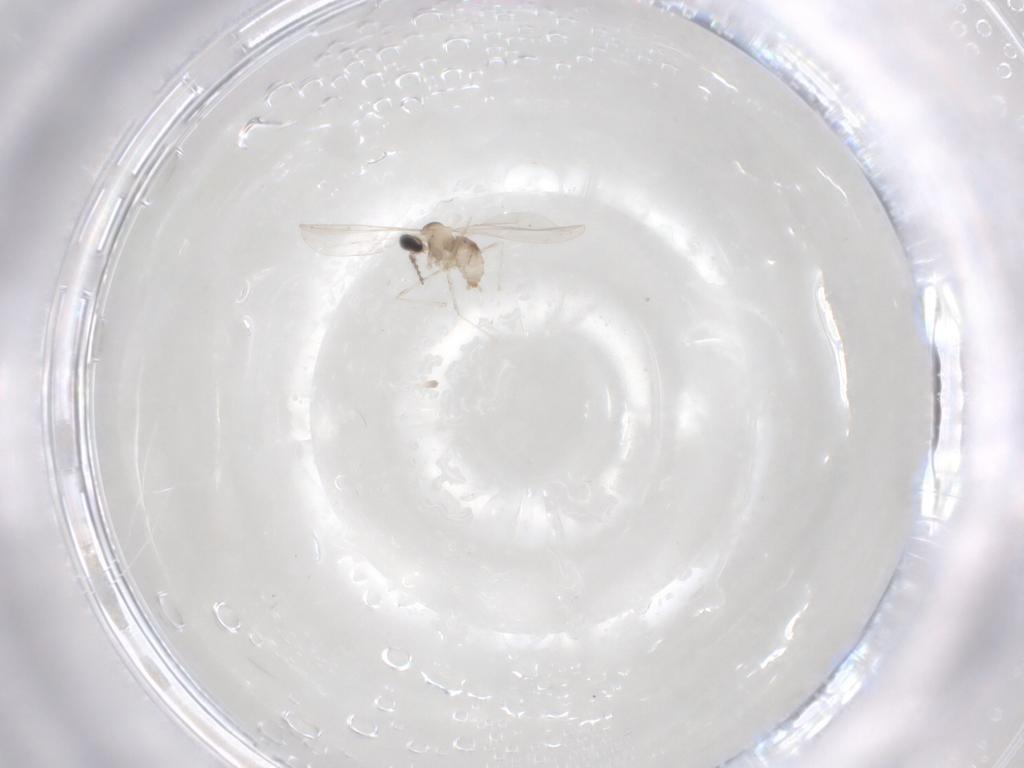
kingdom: Animalia
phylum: Arthropoda
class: Insecta
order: Diptera
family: Cecidomyiidae
